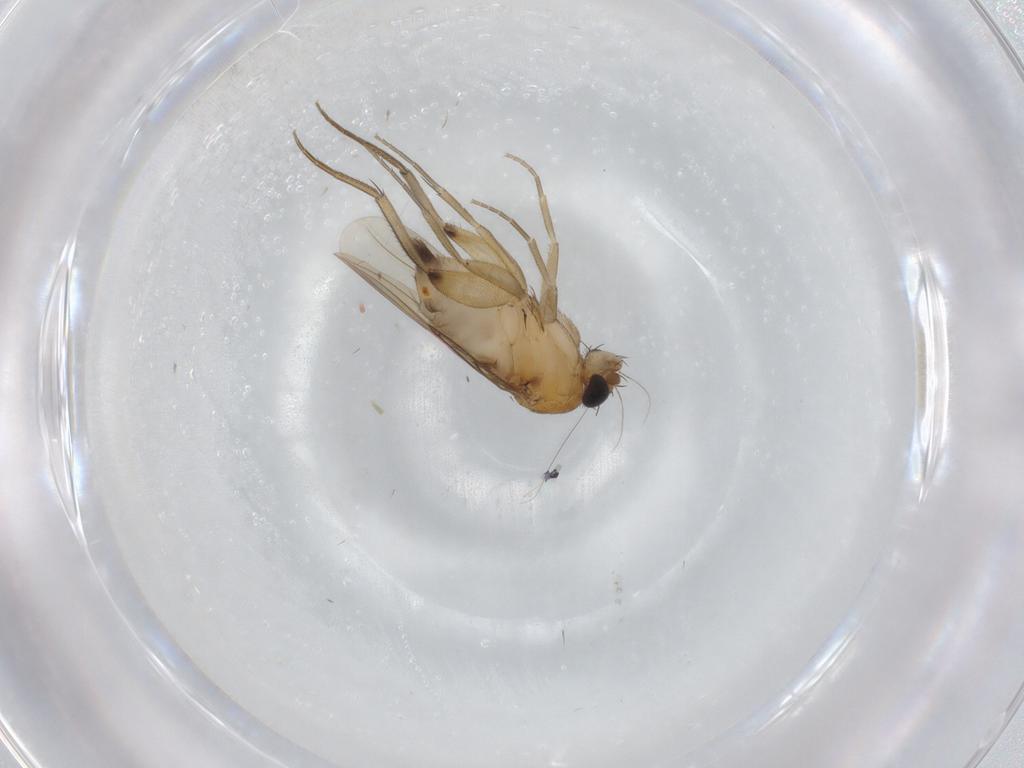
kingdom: Animalia
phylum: Arthropoda
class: Insecta
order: Diptera
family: Phoridae
